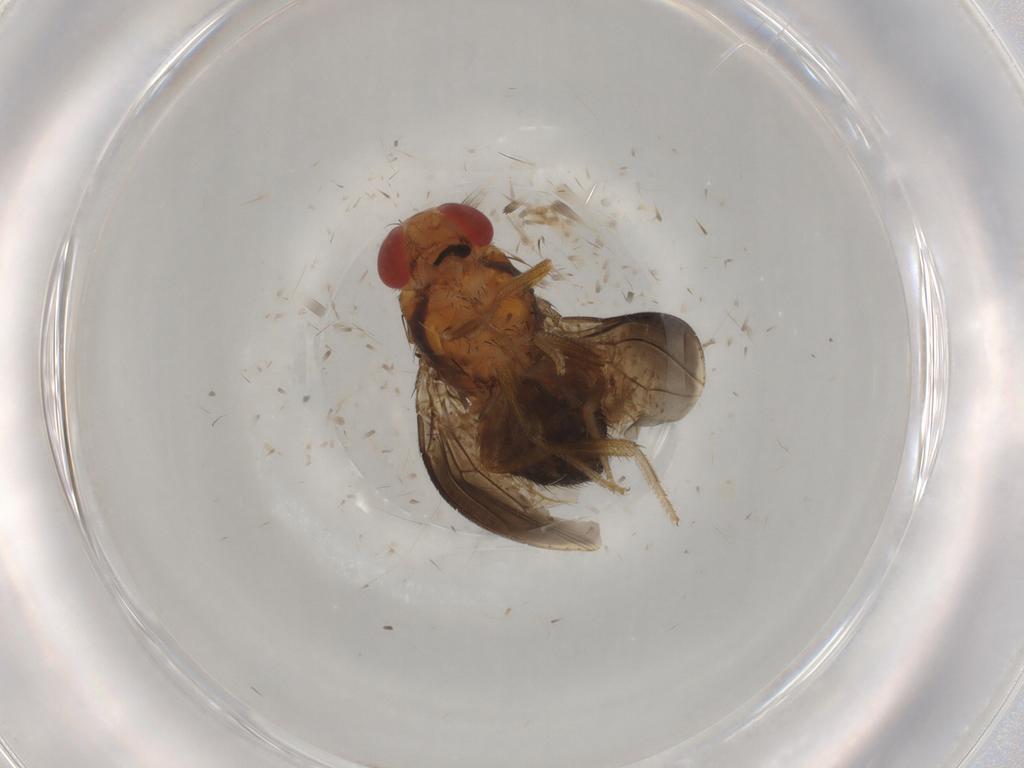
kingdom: Animalia
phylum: Arthropoda
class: Insecta
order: Diptera
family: Drosophilidae
